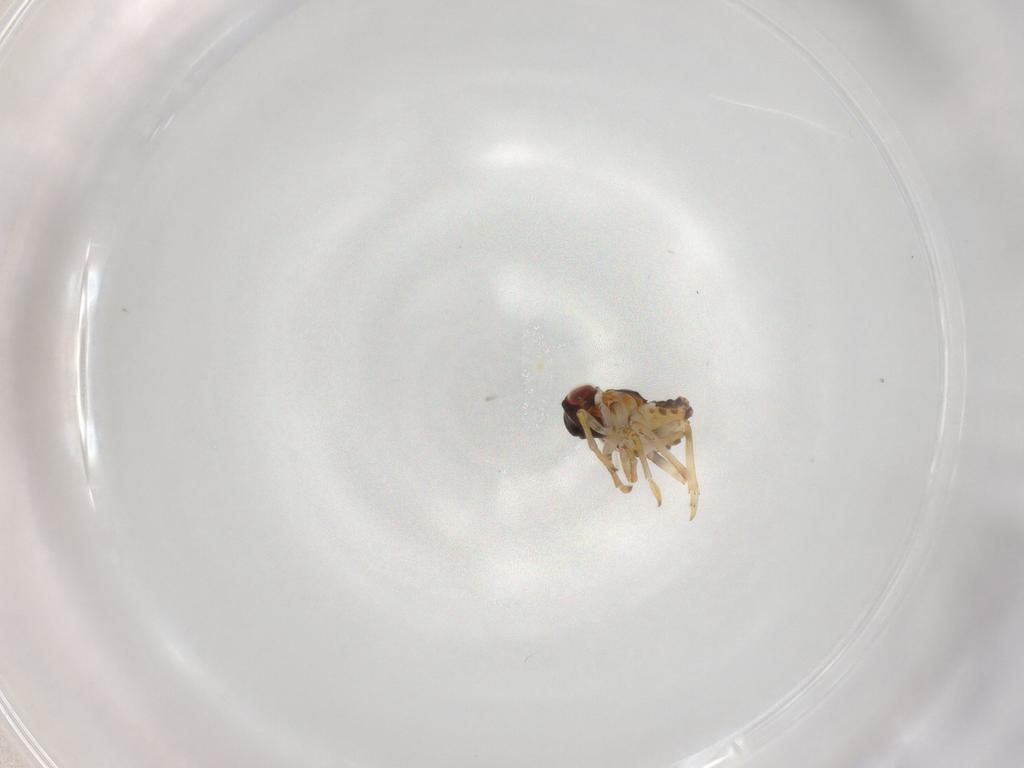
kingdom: Animalia
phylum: Arthropoda
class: Insecta
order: Hemiptera
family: Issidae
